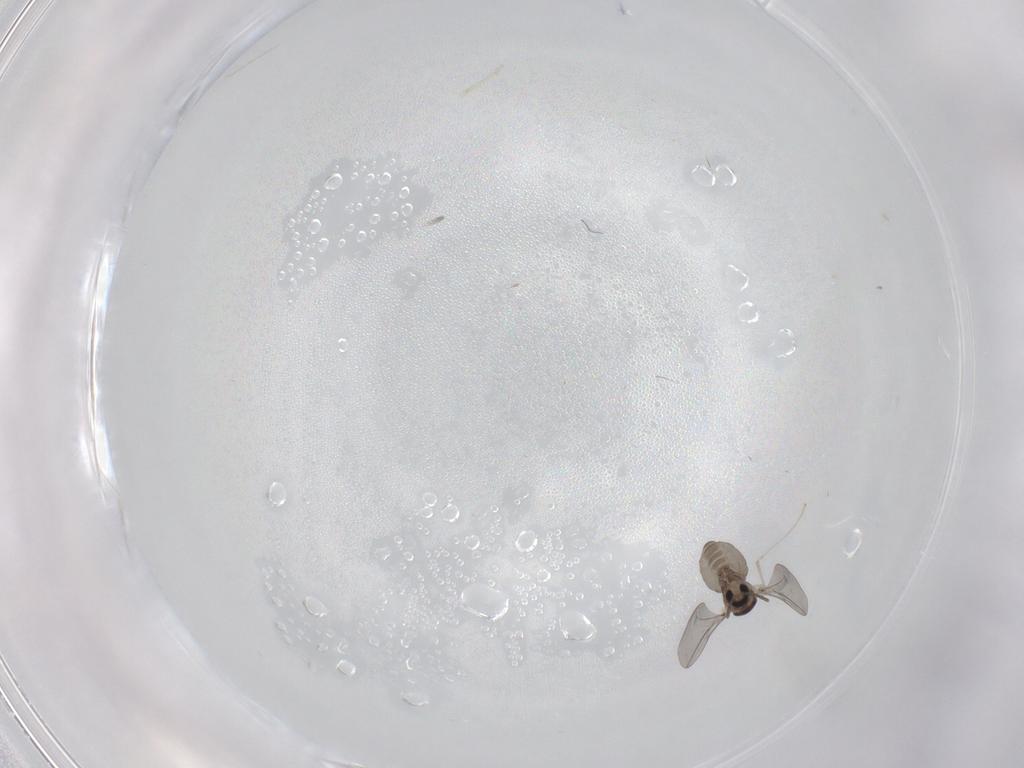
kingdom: Animalia
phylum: Arthropoda
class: Insecta
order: Diptera
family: Cecidomyiidae
